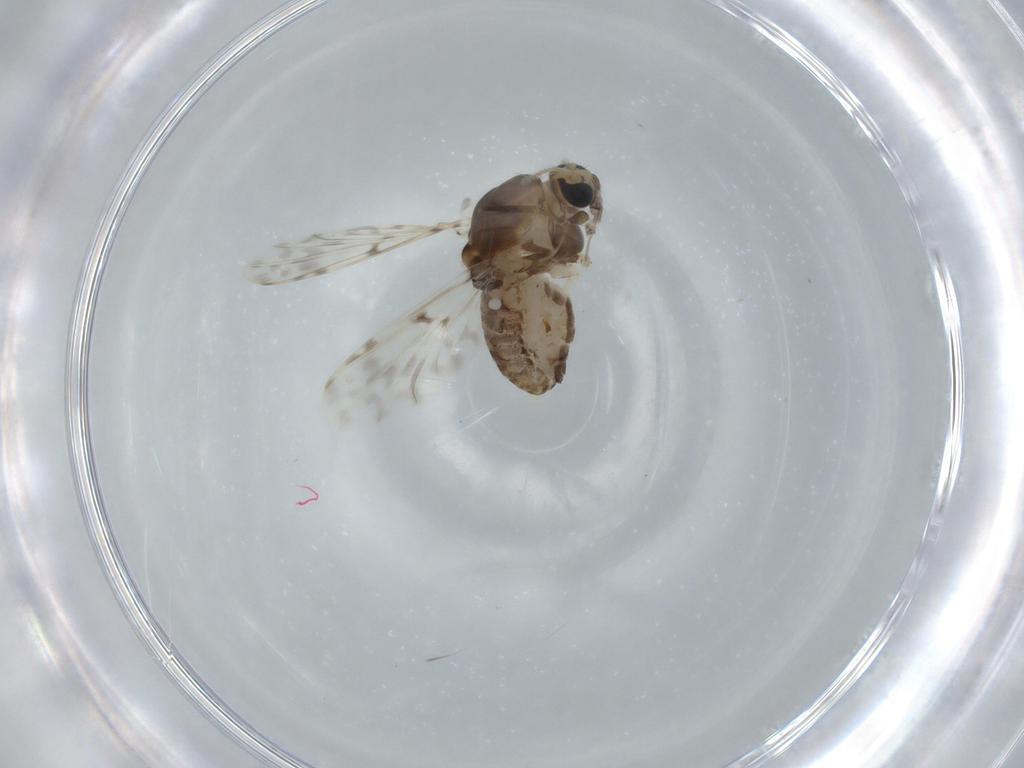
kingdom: Animalia
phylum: Arthropoda
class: Insecta
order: Diptera
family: Chironomidae
